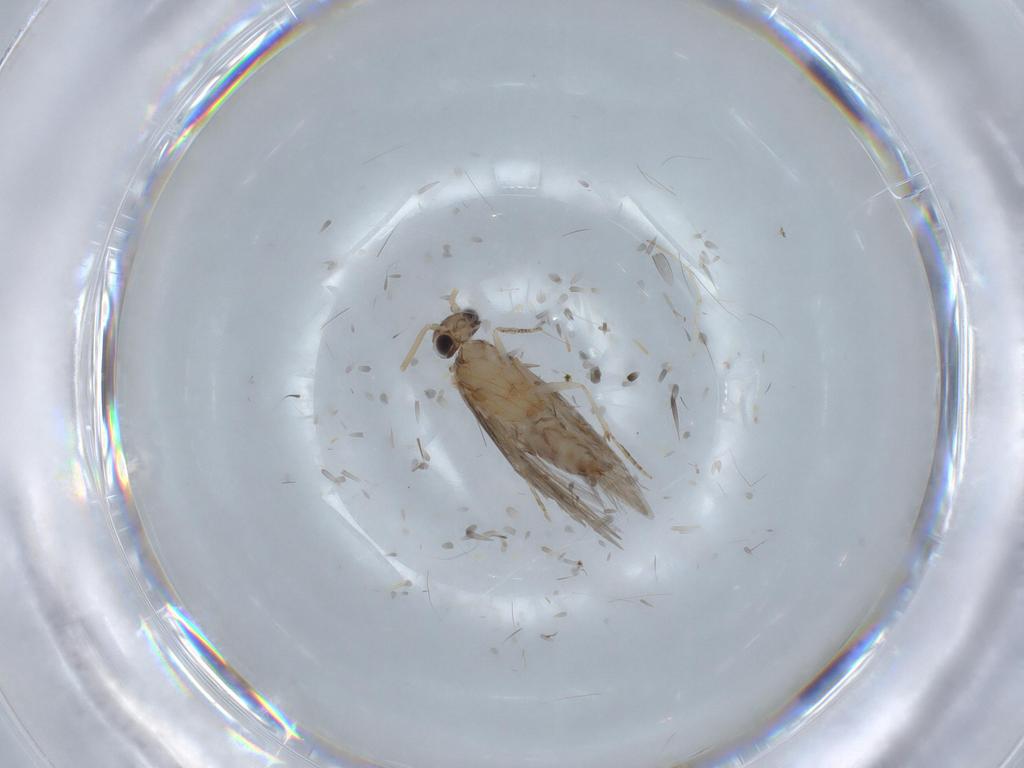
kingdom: Animalia
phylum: Arthropoda
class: Insecta
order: Trichoptera
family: Hydroptilidae
